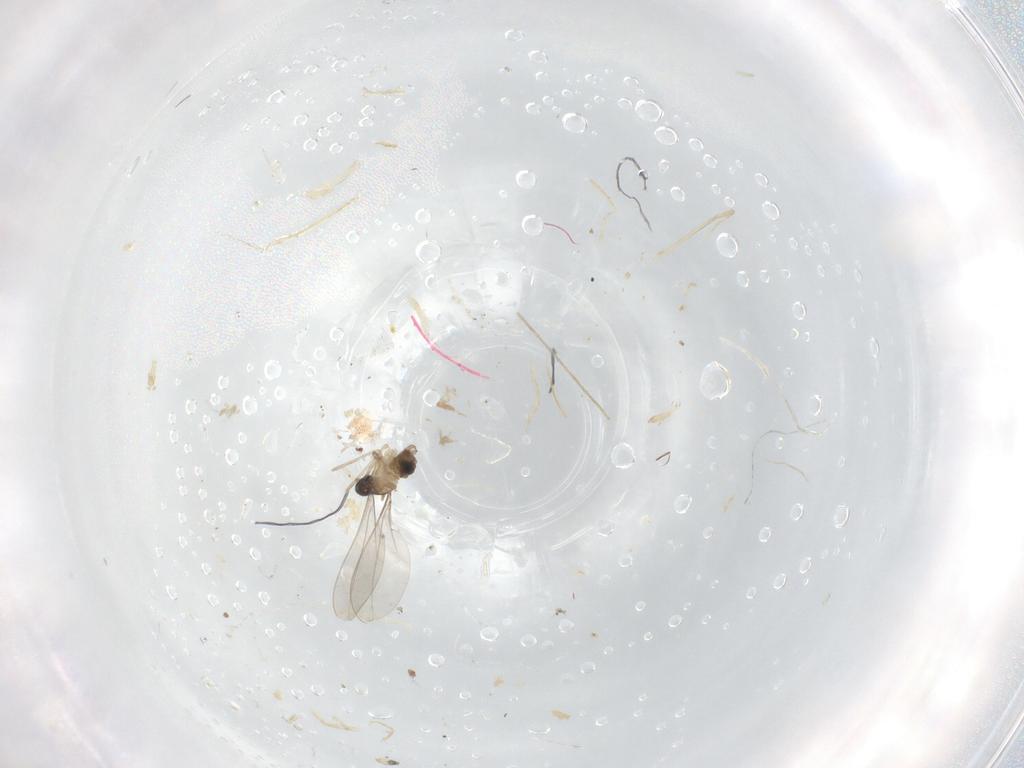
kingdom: Animalia
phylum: Arthropoda
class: Insecta
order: Diptera
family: Cecidomyiidae
